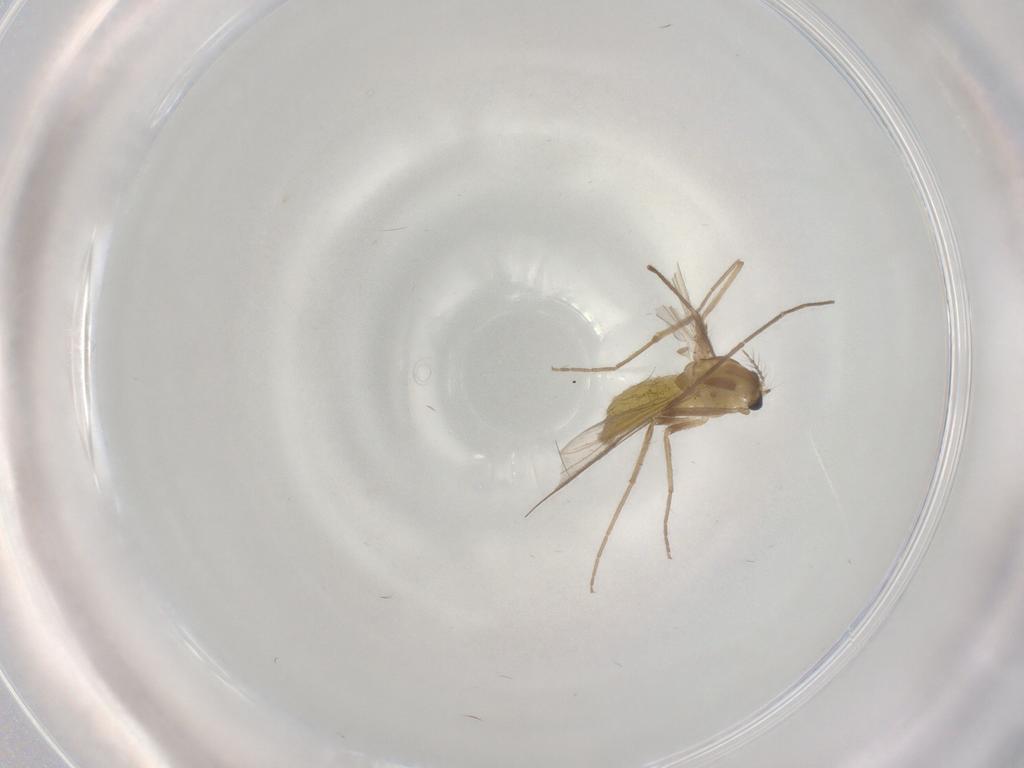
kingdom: Animalia
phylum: Arthropoda
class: Insecta
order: Diptera
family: Chironomidae
